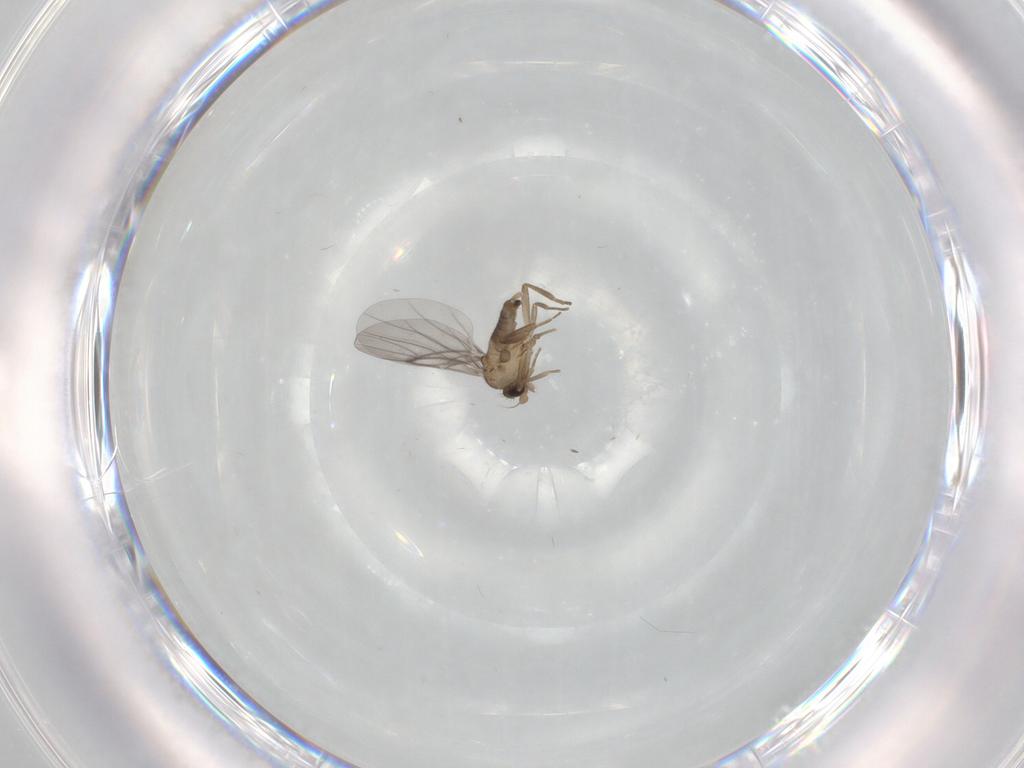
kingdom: Animalia
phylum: Arthropoda
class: Insecta
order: Diptera
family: Psychodidae
